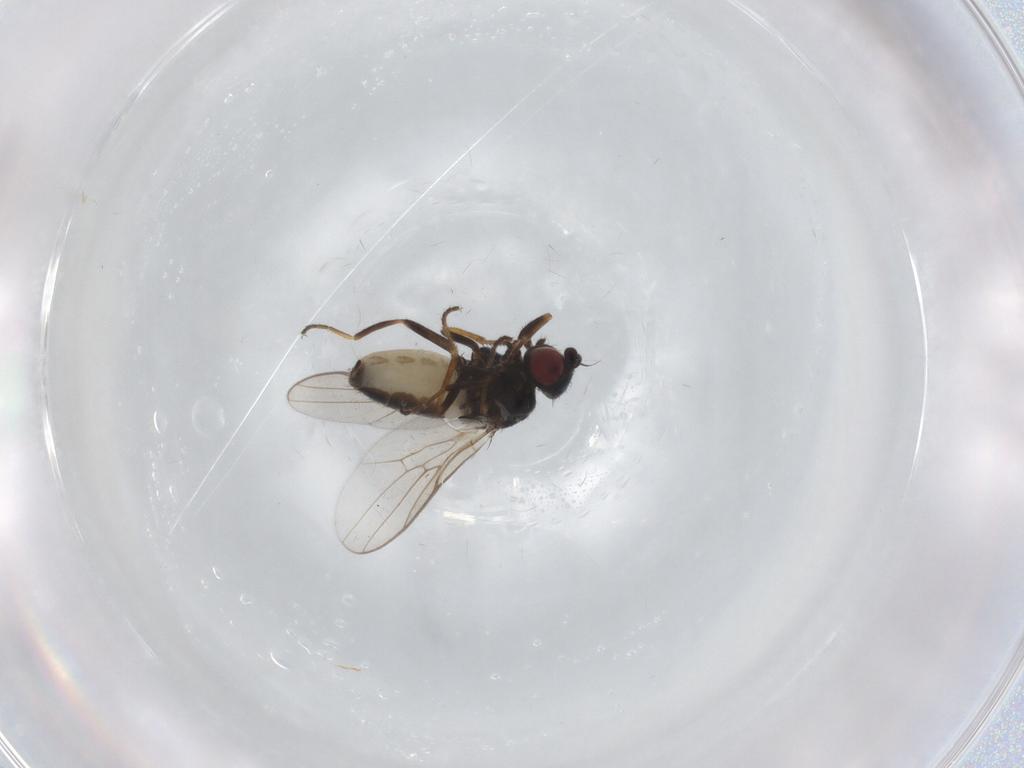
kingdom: Animalia
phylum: Arthropoda
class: Insecta
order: Diptera
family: Chloropidae
